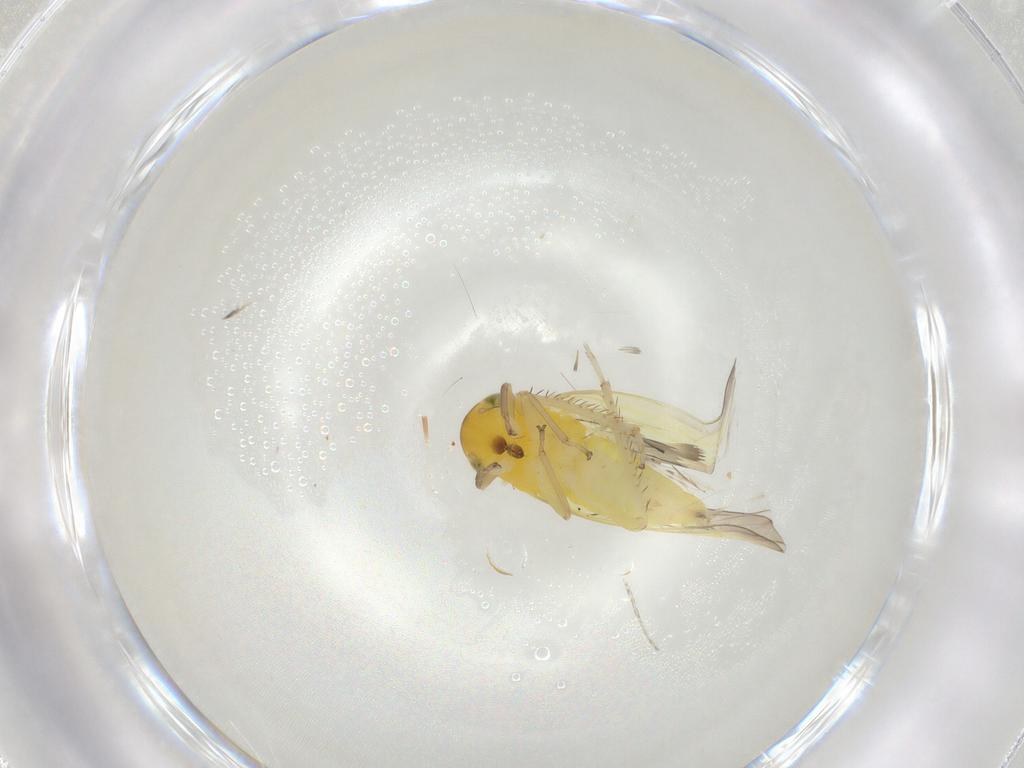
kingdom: Animalia
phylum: Arthropoda
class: Insecta
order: Hemiptera
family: Cicadellidae
